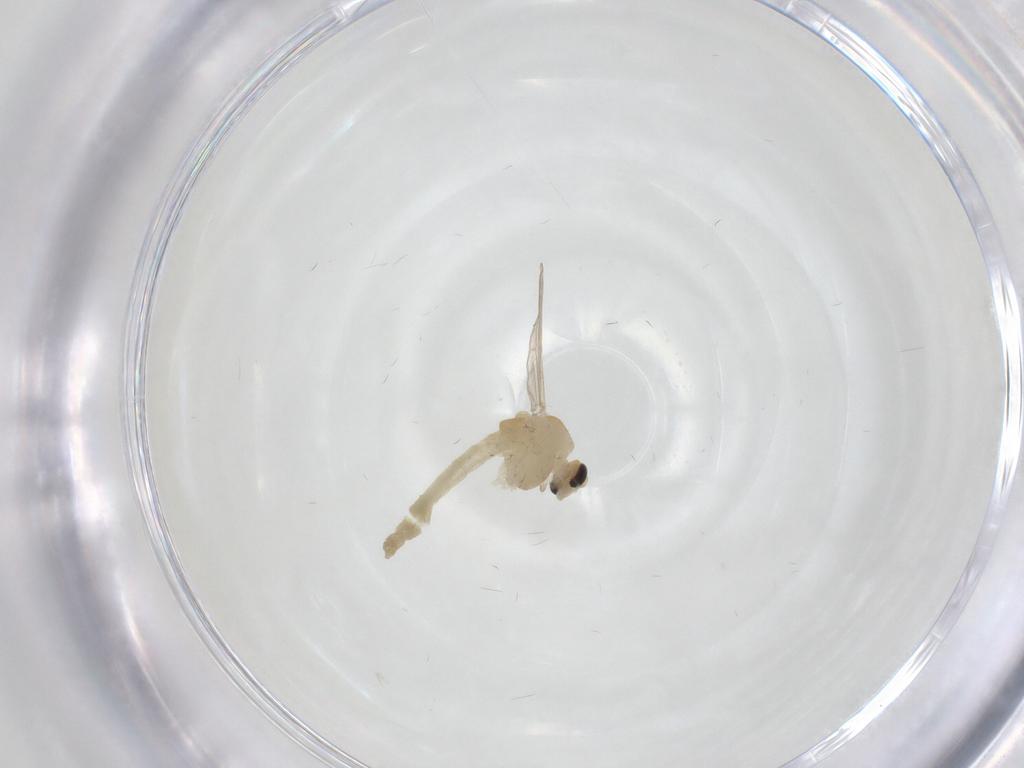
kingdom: Animalia
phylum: Arthropoda
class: Insecta
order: Diptera
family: Chironomidae
